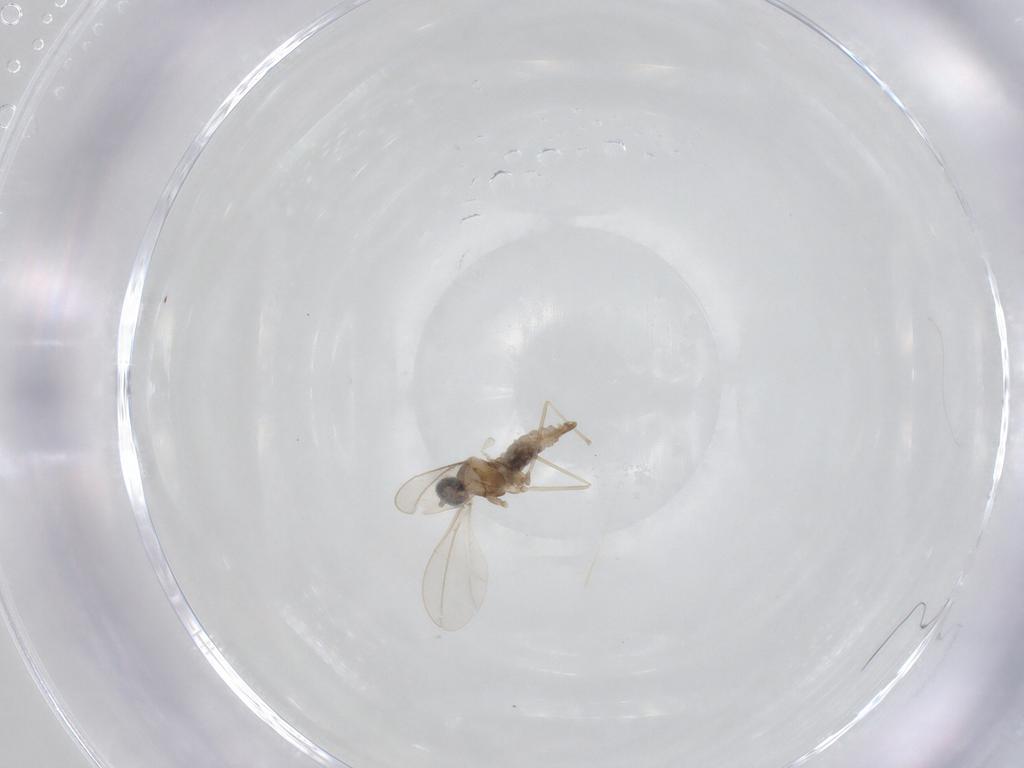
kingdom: Animalia
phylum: Arthropoda
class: Insecta
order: Diptera
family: Cecidomyiidae
